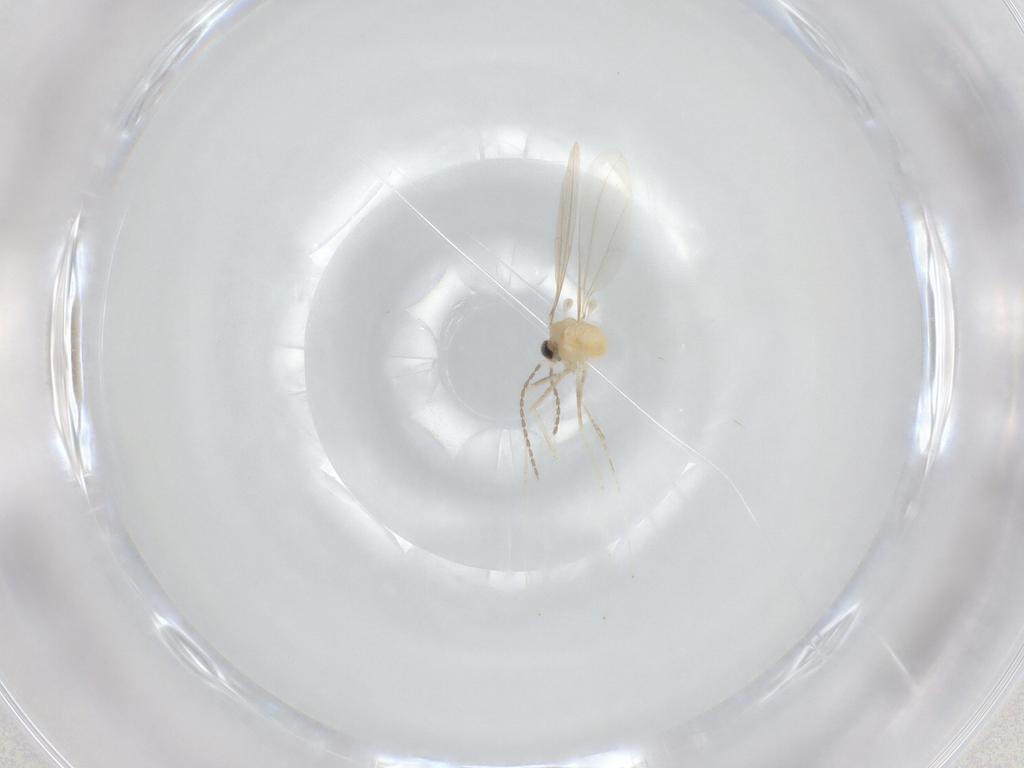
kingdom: Animalia
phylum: Arthropoda
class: Insecta
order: Diptera
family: Cecidomyiidae
